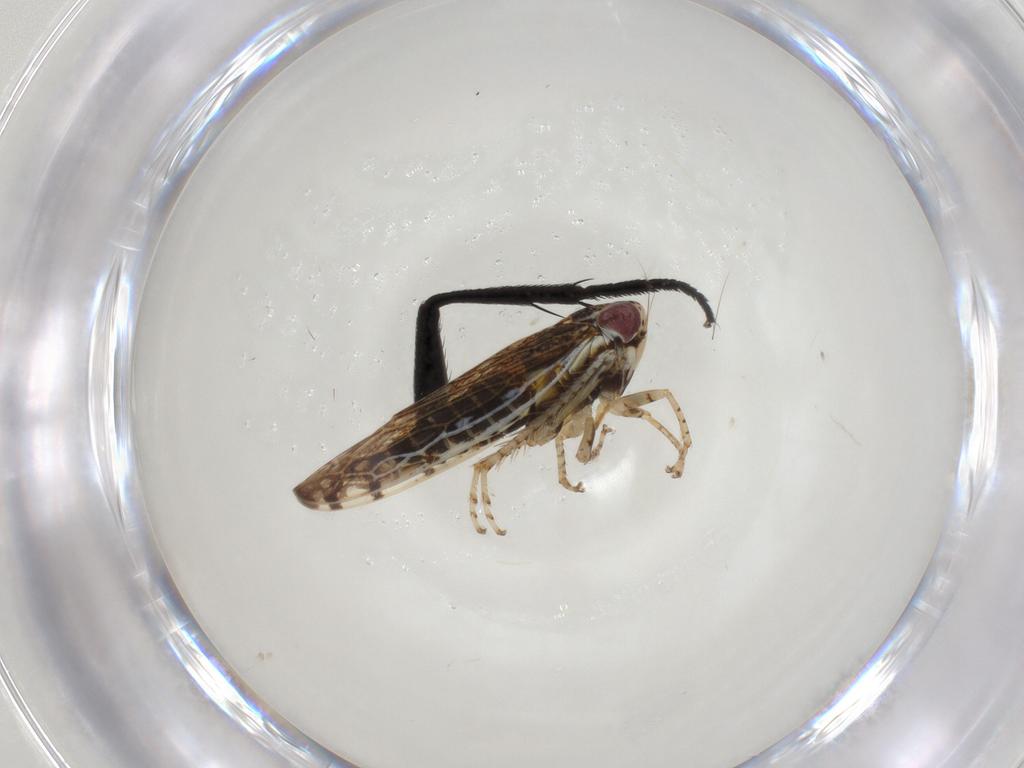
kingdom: Animalia
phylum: Arthropoda
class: Insecta
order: Hemiptera
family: Cicadellidae
